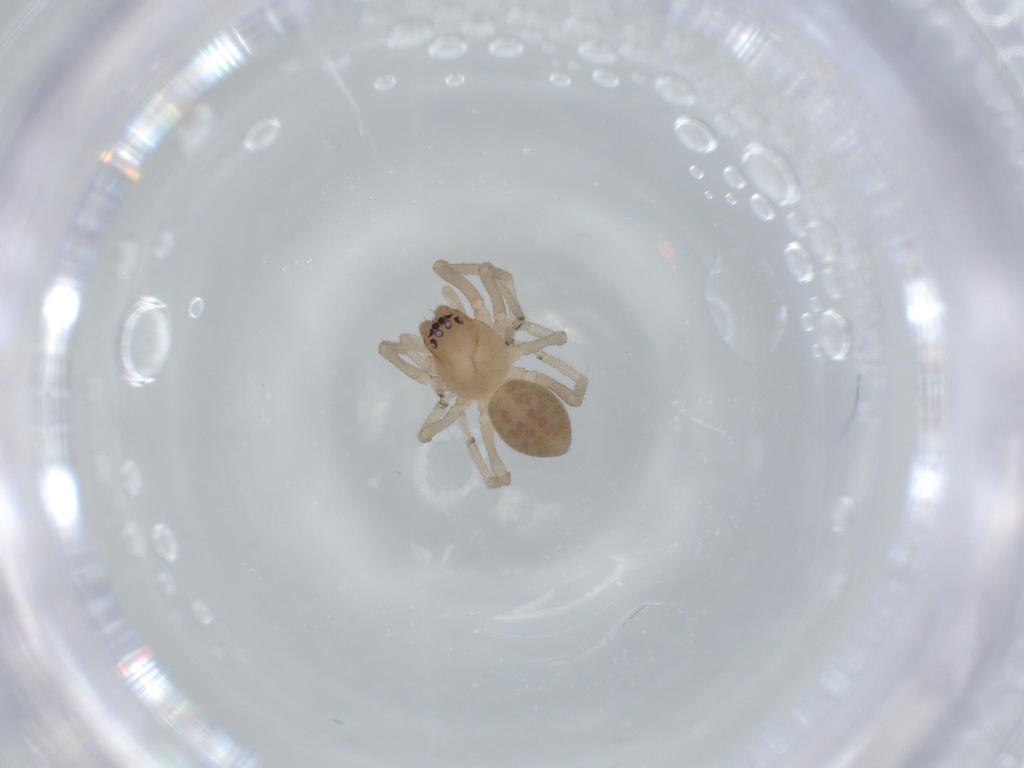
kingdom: Animalia
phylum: Arthropoda
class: Arachnida
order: Araneae
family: Trachelidae
